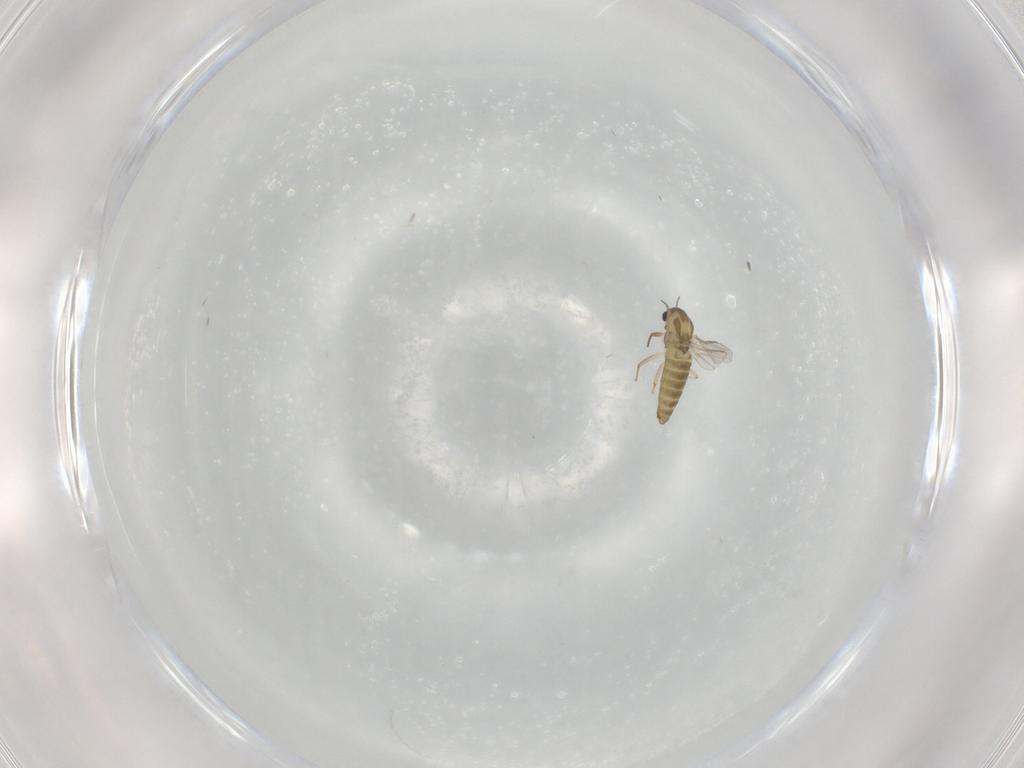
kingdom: Animalia
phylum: Arthropoda
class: Insecta
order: Diptera
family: Chironomidae
